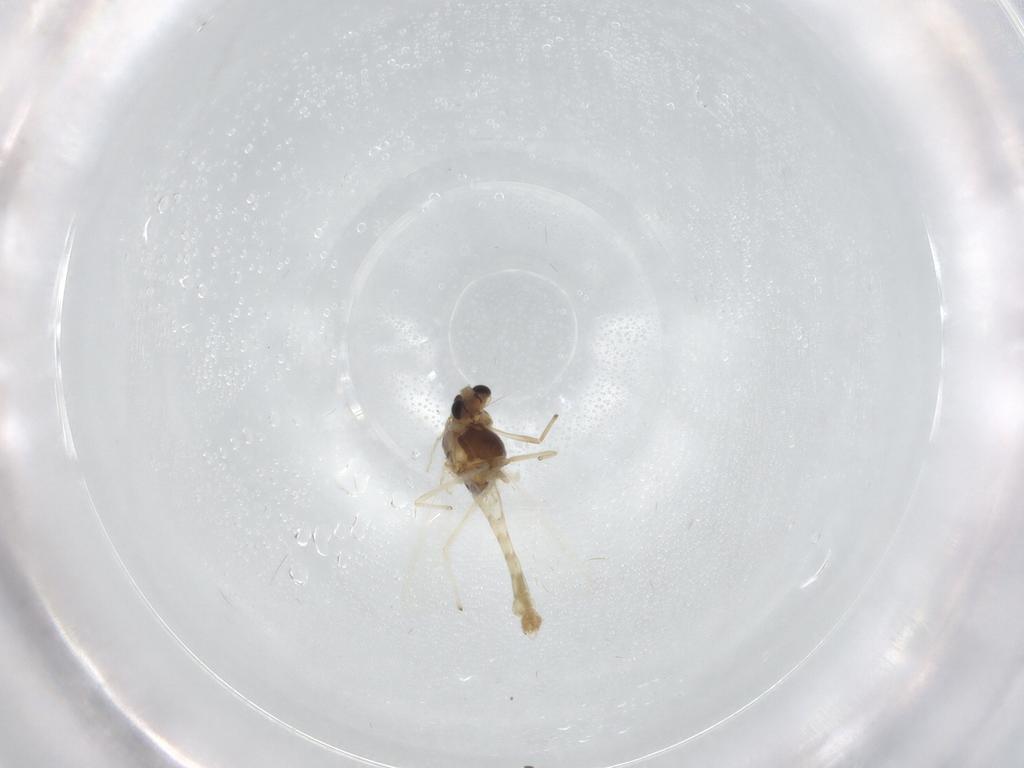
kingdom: Animalia
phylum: Arthropoda
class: Insecta
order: Diptera
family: Chironomidae
